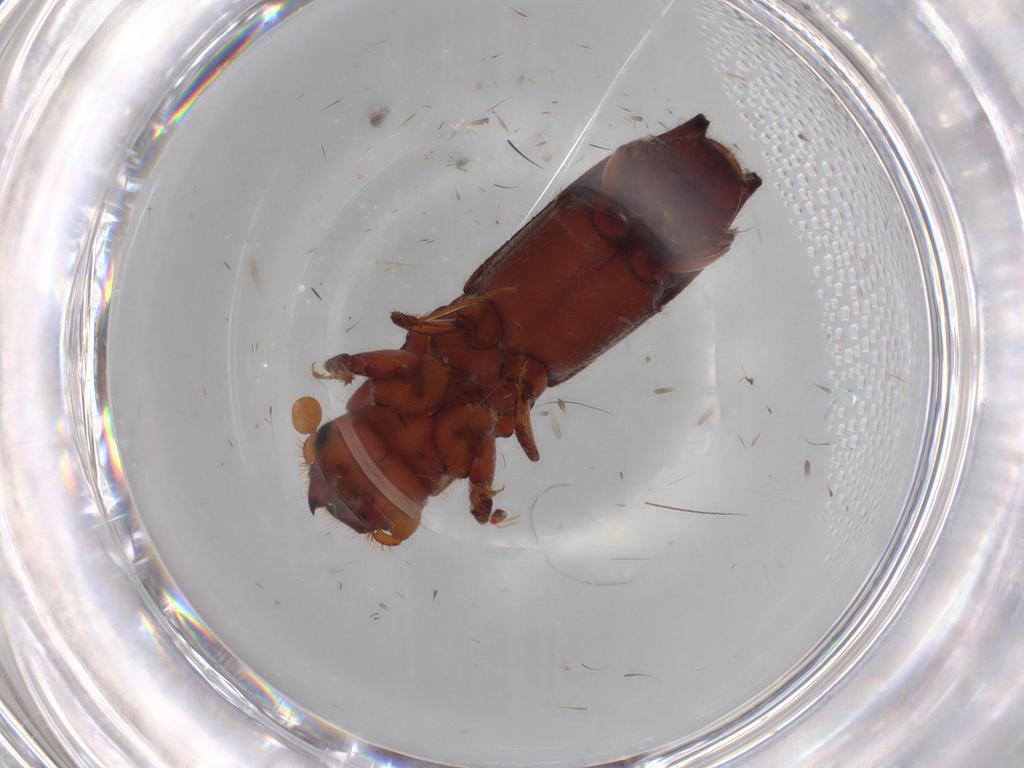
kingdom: Animalia
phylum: Arthropoda
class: Insecta
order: Coleoptera
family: Curculionidae
